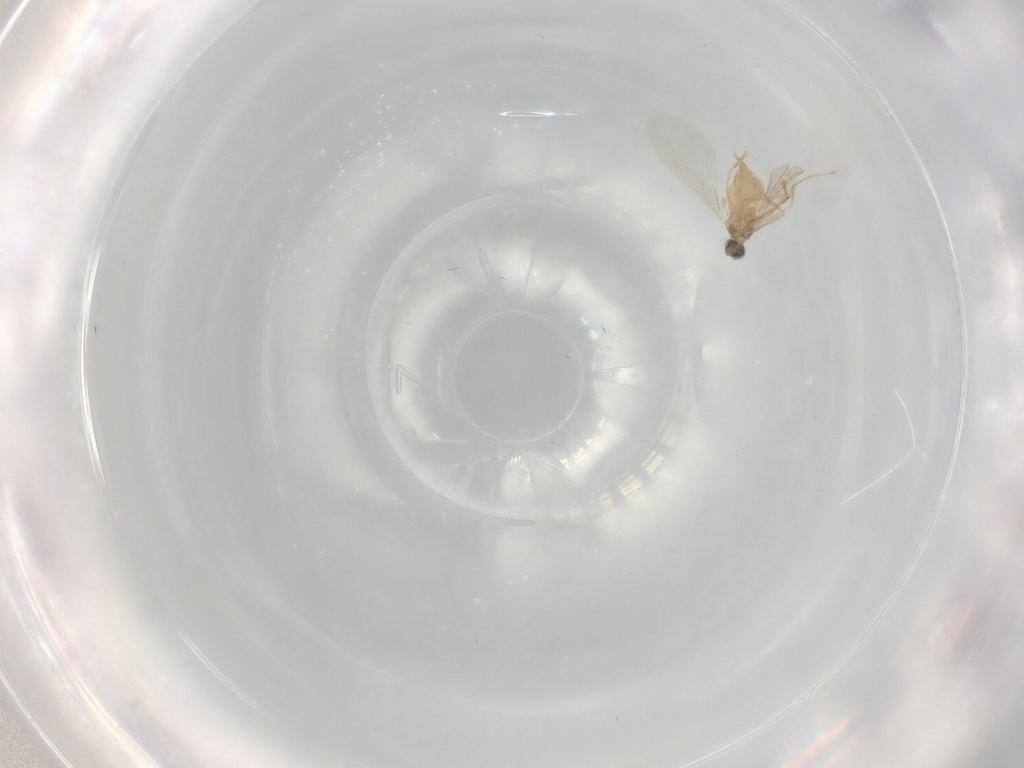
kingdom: Animalia
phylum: Arthropoda
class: Insecta
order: Diptera
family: Cecidomyiidae
